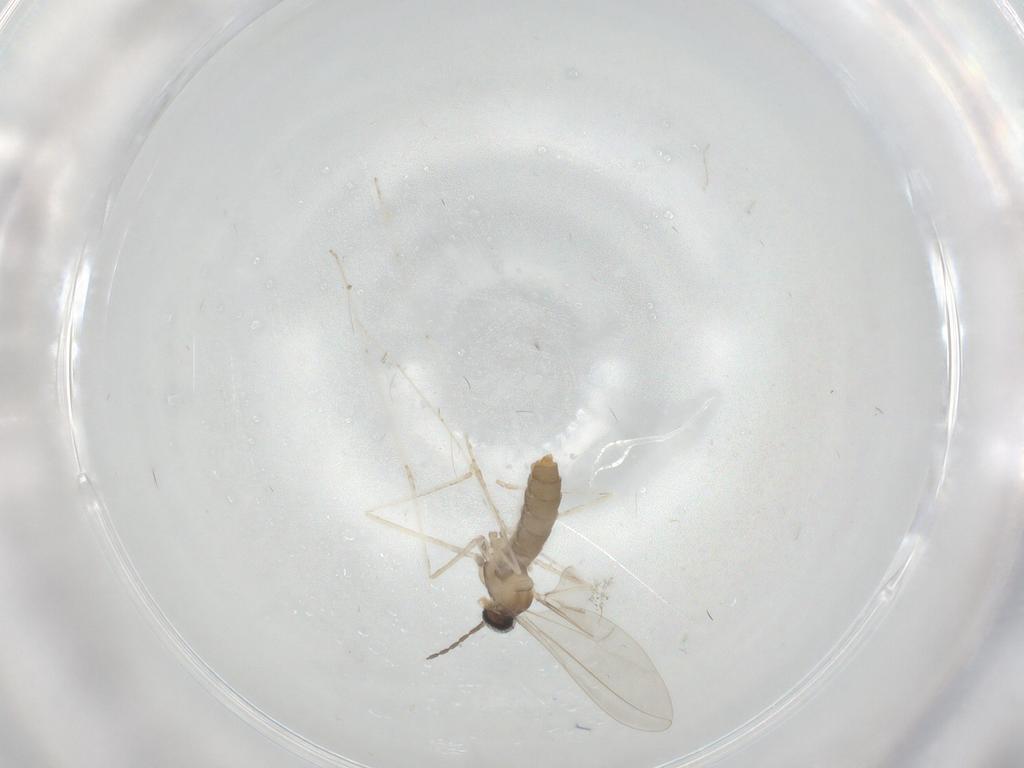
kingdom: Animalia
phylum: Arthropoda
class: Insecta
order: Diptera
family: Cecidomyiidae
